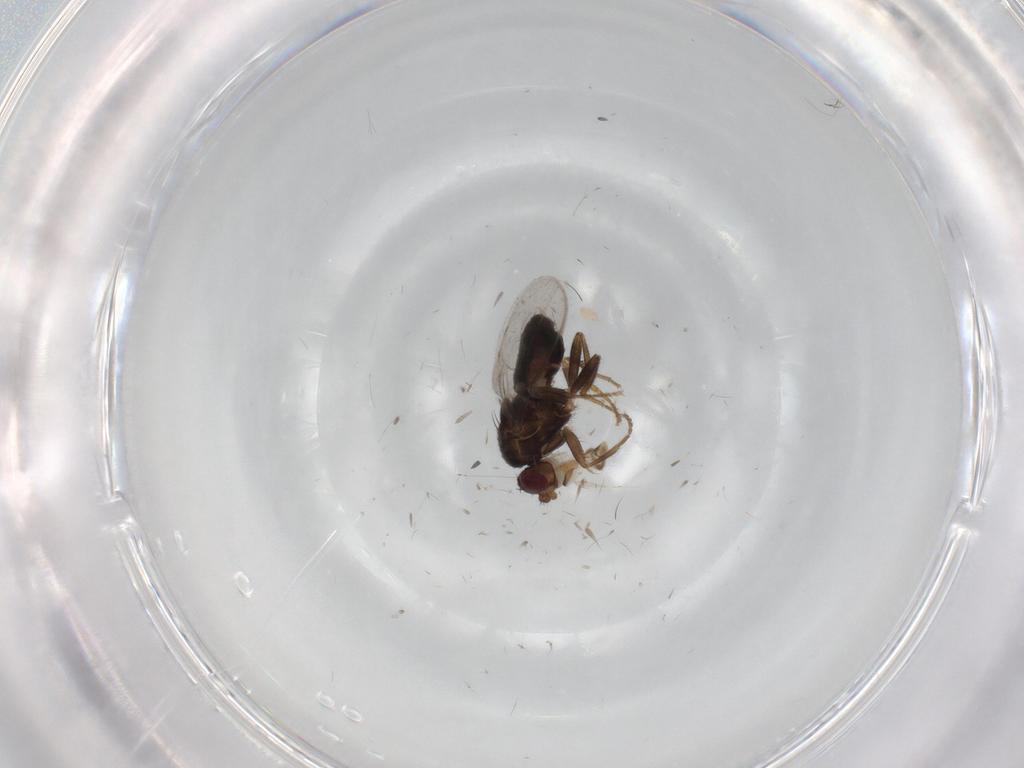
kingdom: Animalia
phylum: Arthropoda
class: Insecta
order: Diptera
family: Sphaeroceridae
